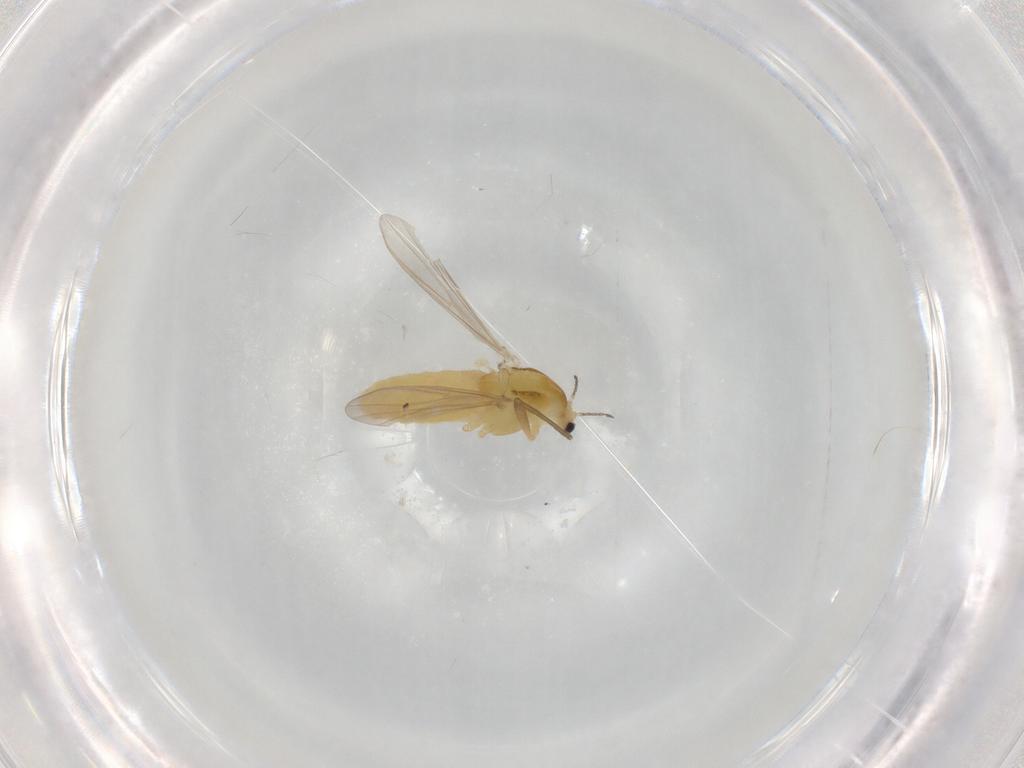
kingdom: Animalia
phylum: Arthropoda
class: Insecta
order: Diptera
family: Chironomidae
